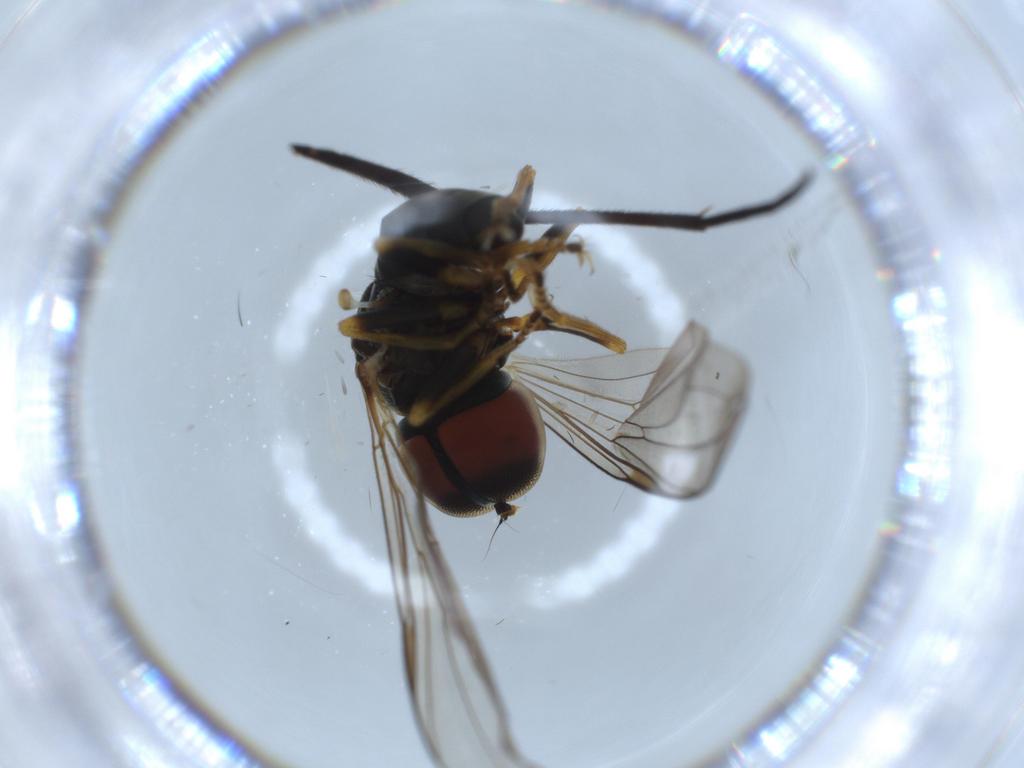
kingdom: Animalia
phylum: Arthropoda
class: Insecta
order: Diptera
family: Pipunculidae
